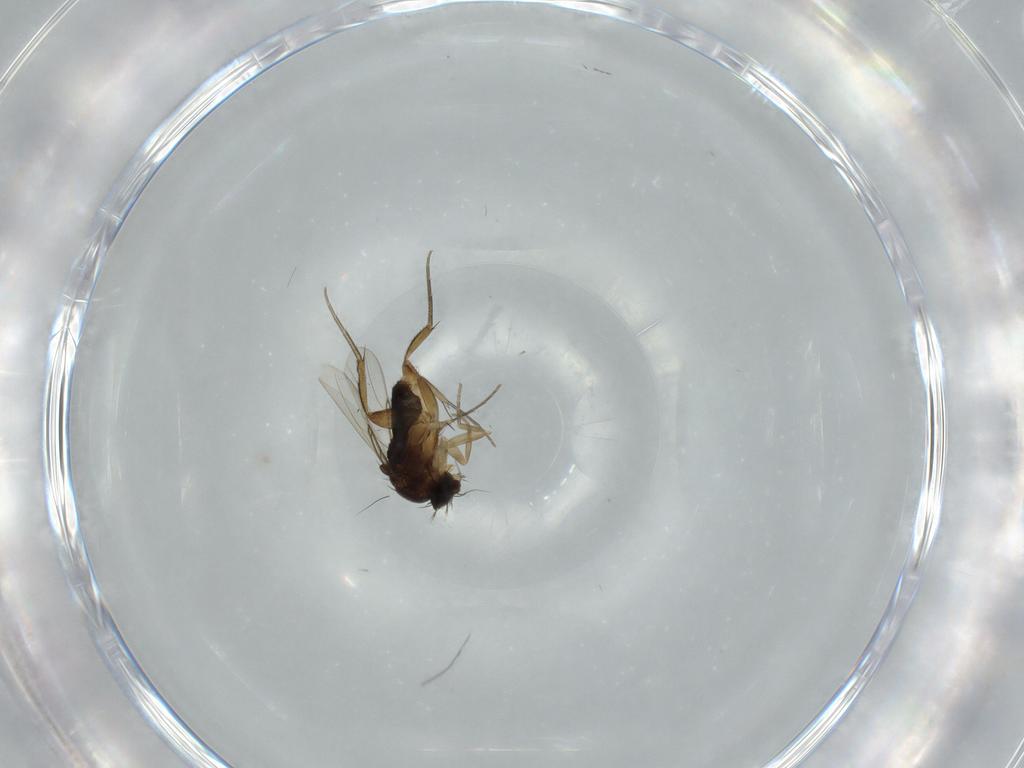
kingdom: Animalia
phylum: Arthropoda
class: Insecta
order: Diptera
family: Phoridae
